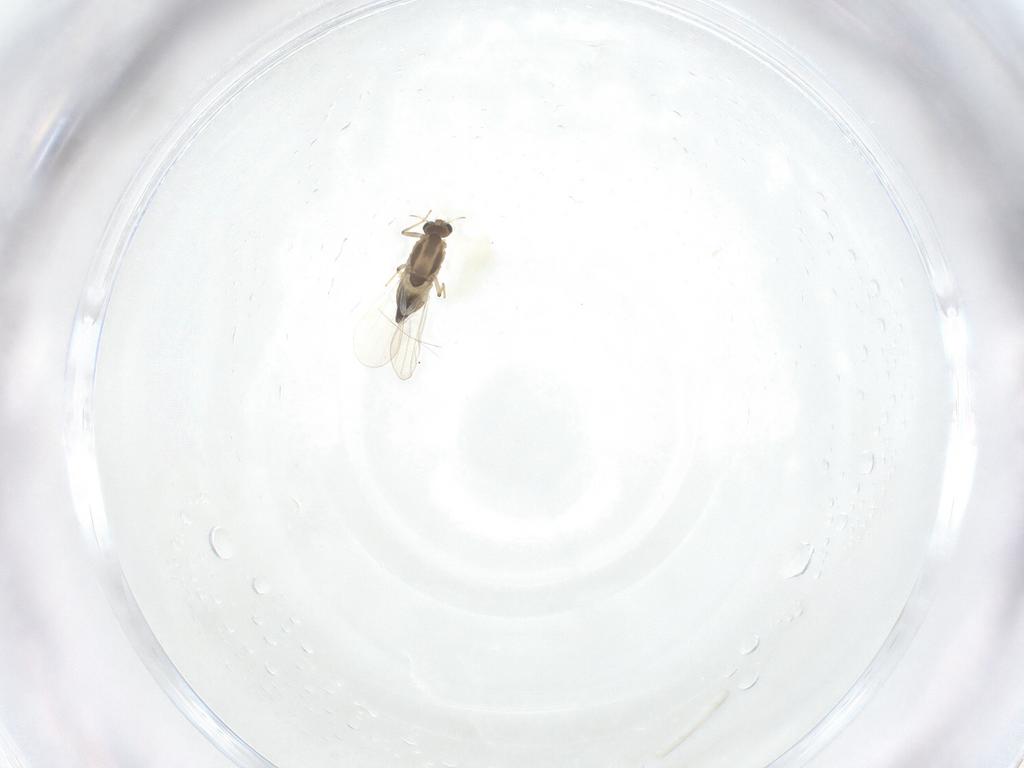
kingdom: Animalia
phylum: Arthropoda
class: Insecta
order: Diptera
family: Chironomidae
